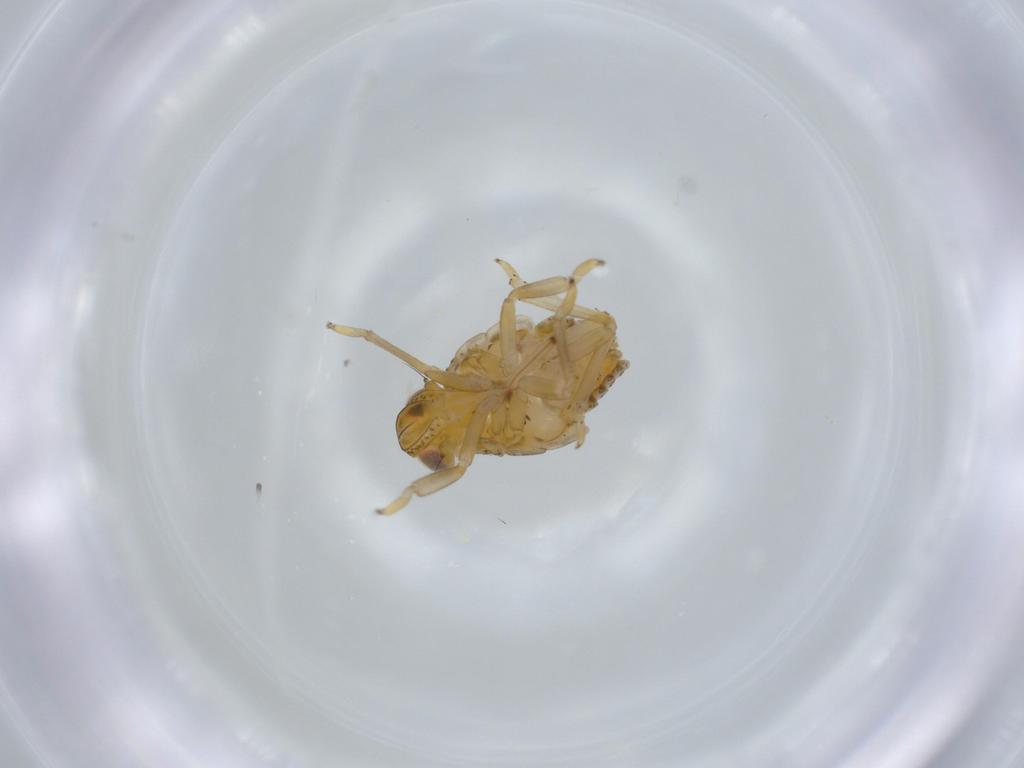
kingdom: Animalia
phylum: Arthropoda
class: Insecta
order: Hemiptera
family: Issidae
